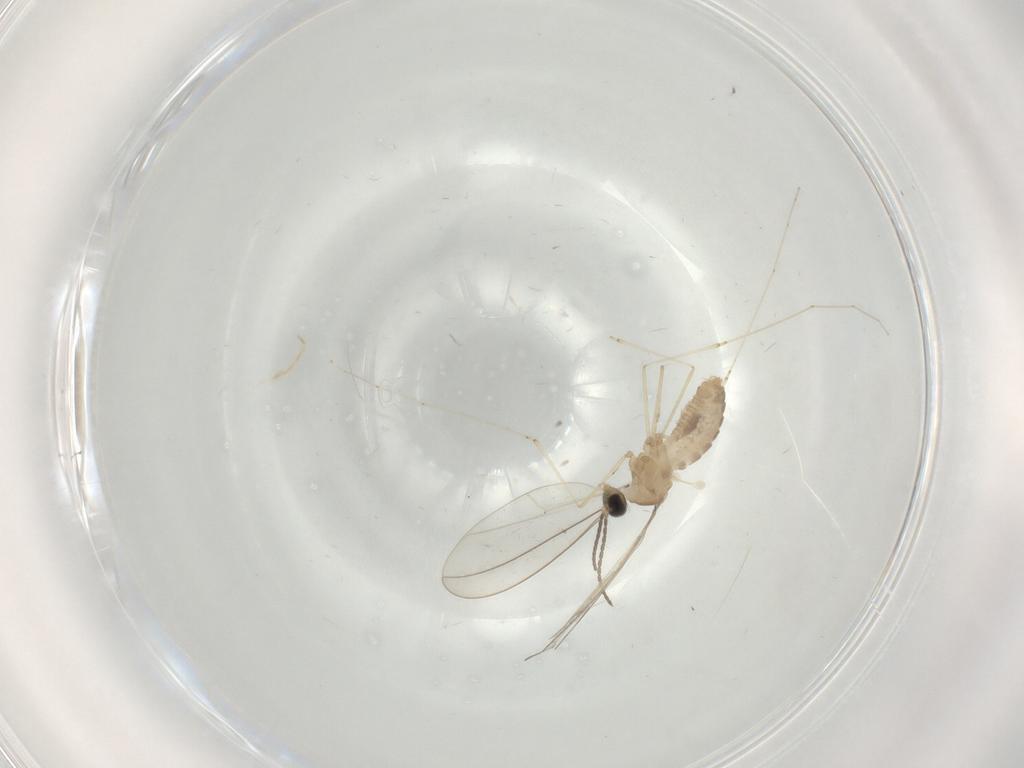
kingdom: Animalia
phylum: Arthropoda
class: Insecta
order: Diptera
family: Cecidomyiidae
